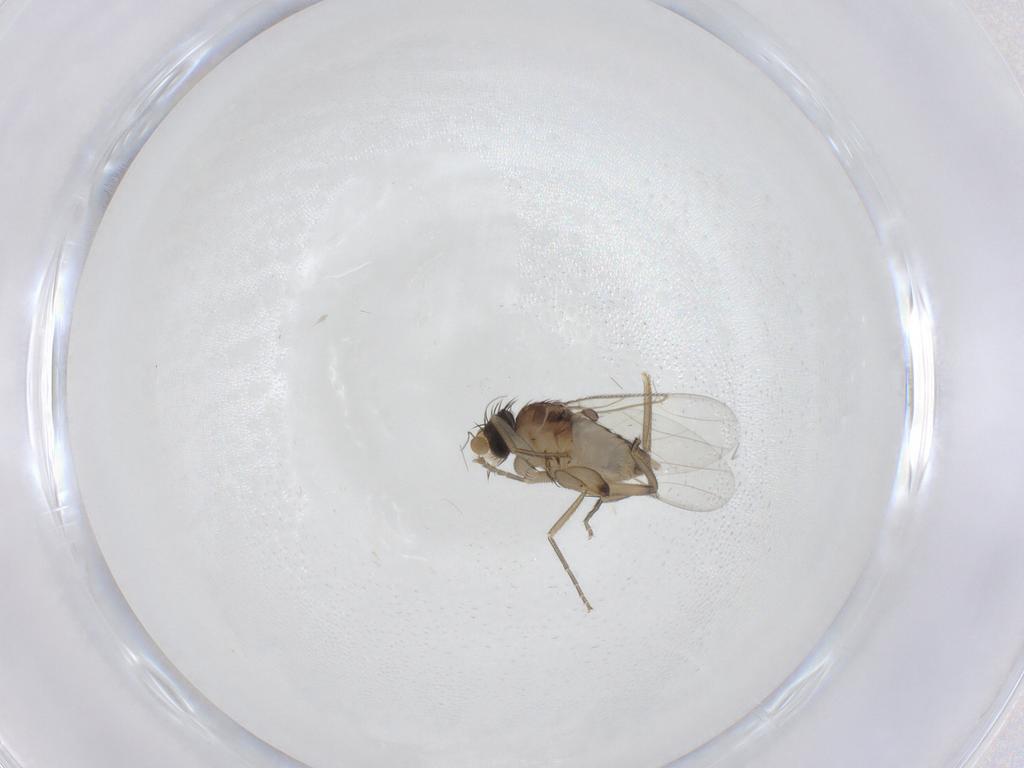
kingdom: Animalia
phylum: Arthropoda
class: Insecta
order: Diptera
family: Phoridae
